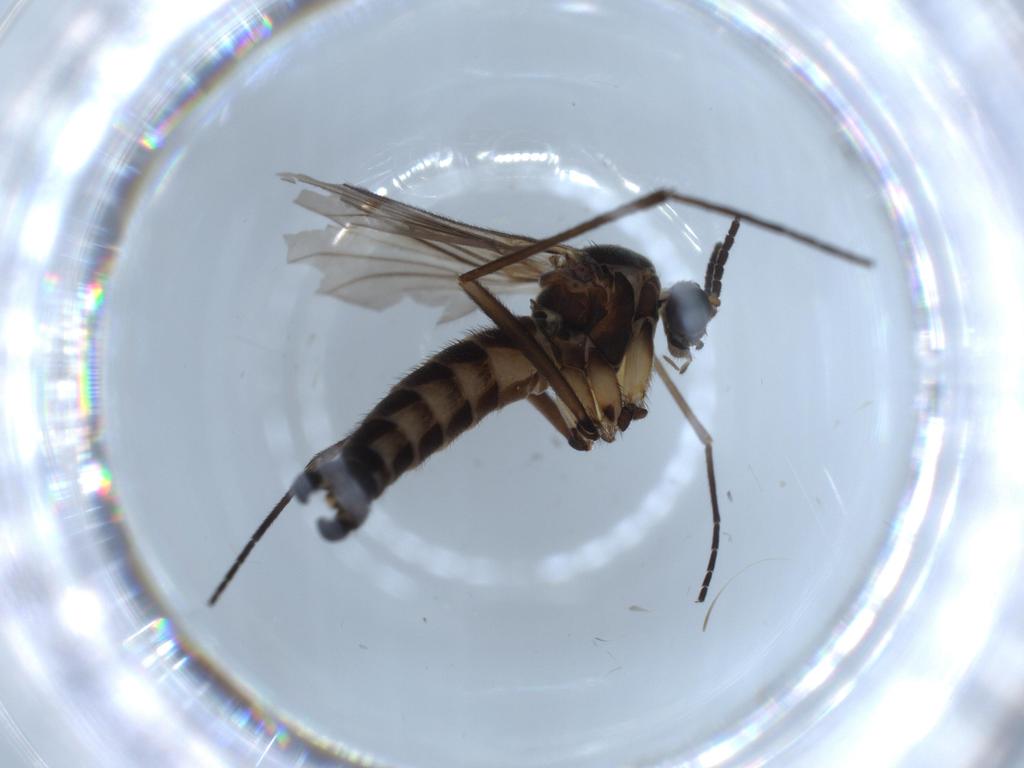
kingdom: Animalia
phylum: Arthropoda
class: Insecta
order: Diptera
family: Sciaridae
